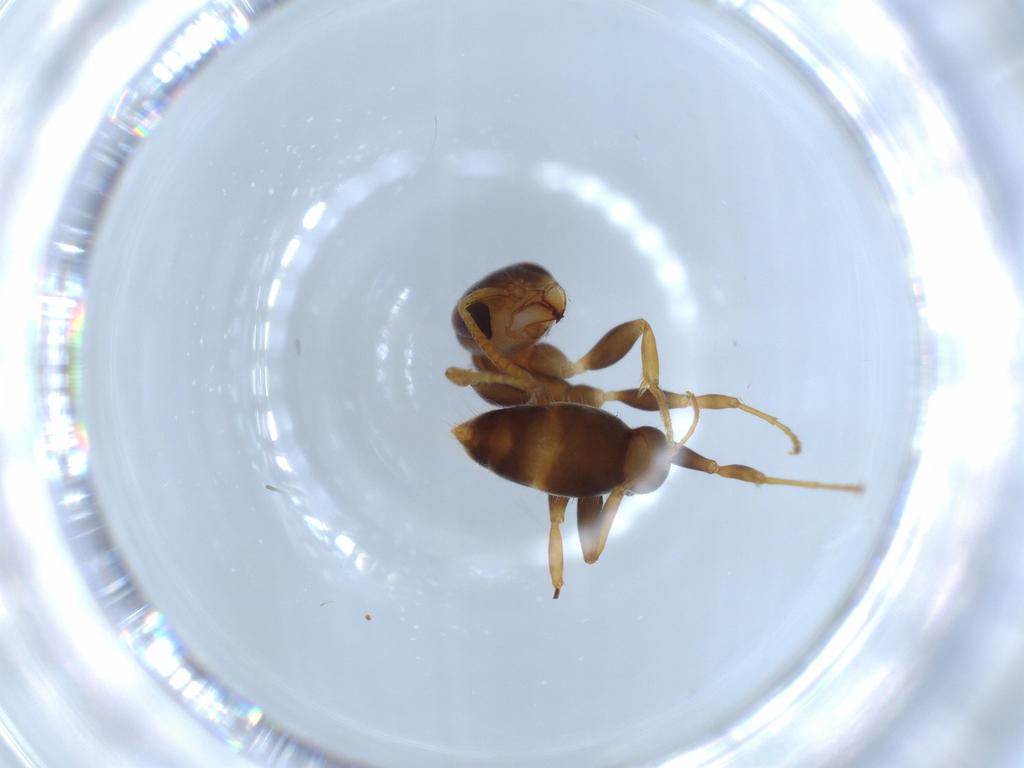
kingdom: Animalia
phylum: Arthropoda
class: Insecta
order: Hymenoptera
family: Formicidae
